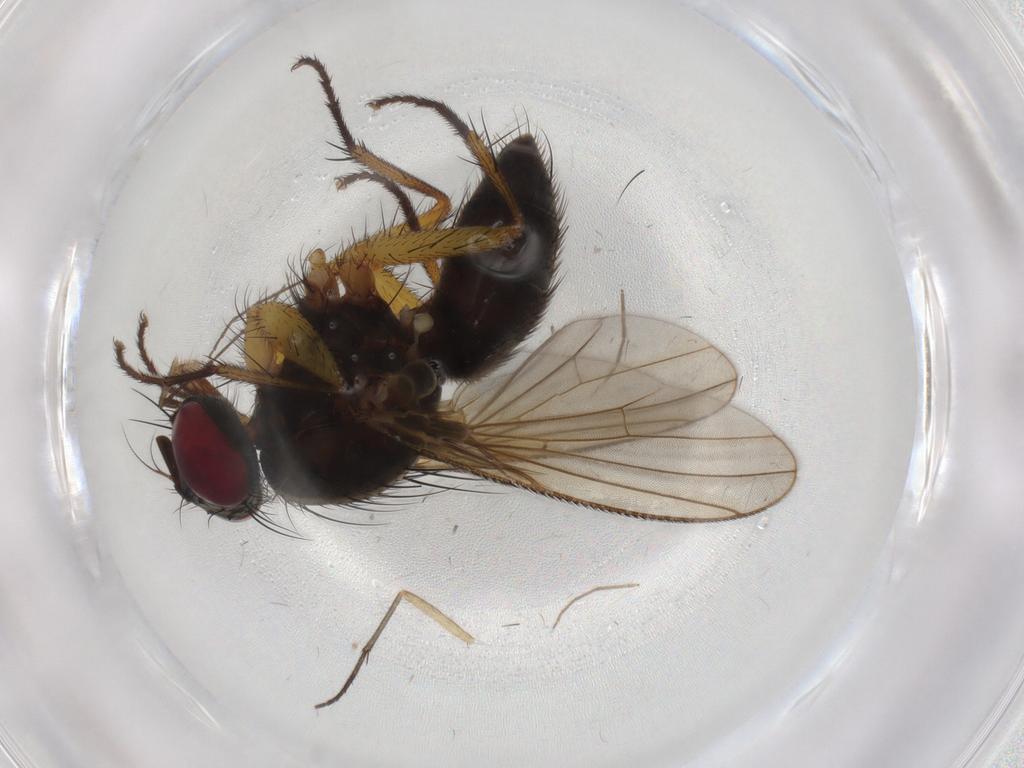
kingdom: Animalia
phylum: Arthropoda
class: Insecta
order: Diptera
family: Muscidae
